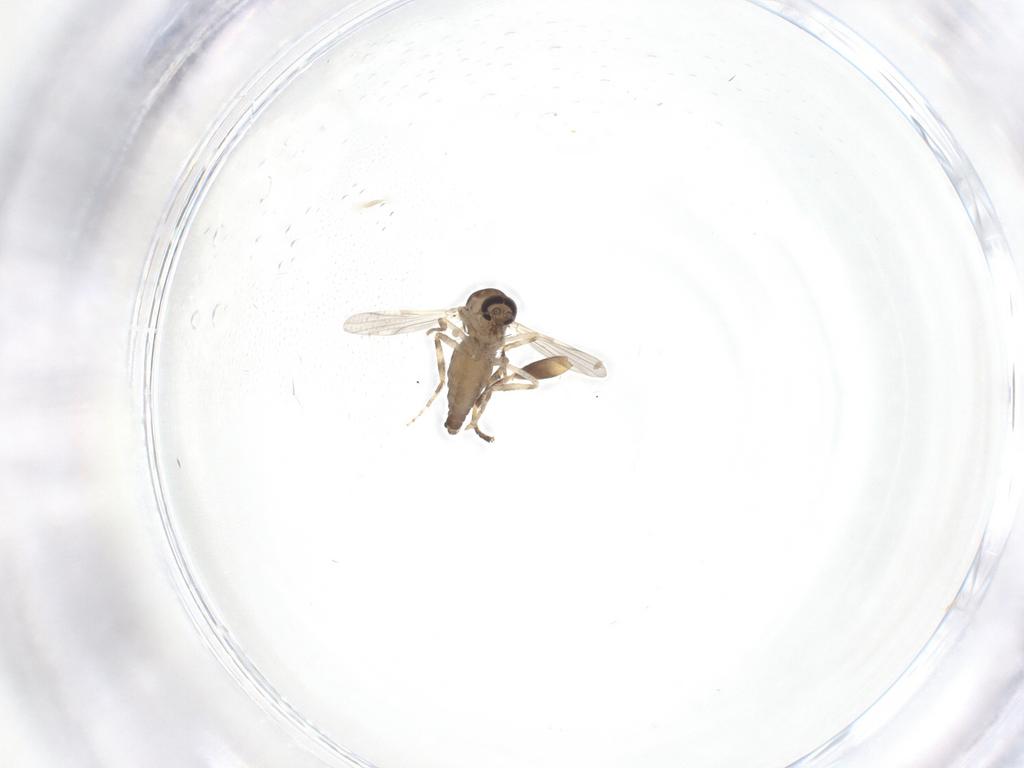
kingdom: Animalia
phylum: Arthropoda
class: Insecta
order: Diptera
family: Ceratopogonidae
